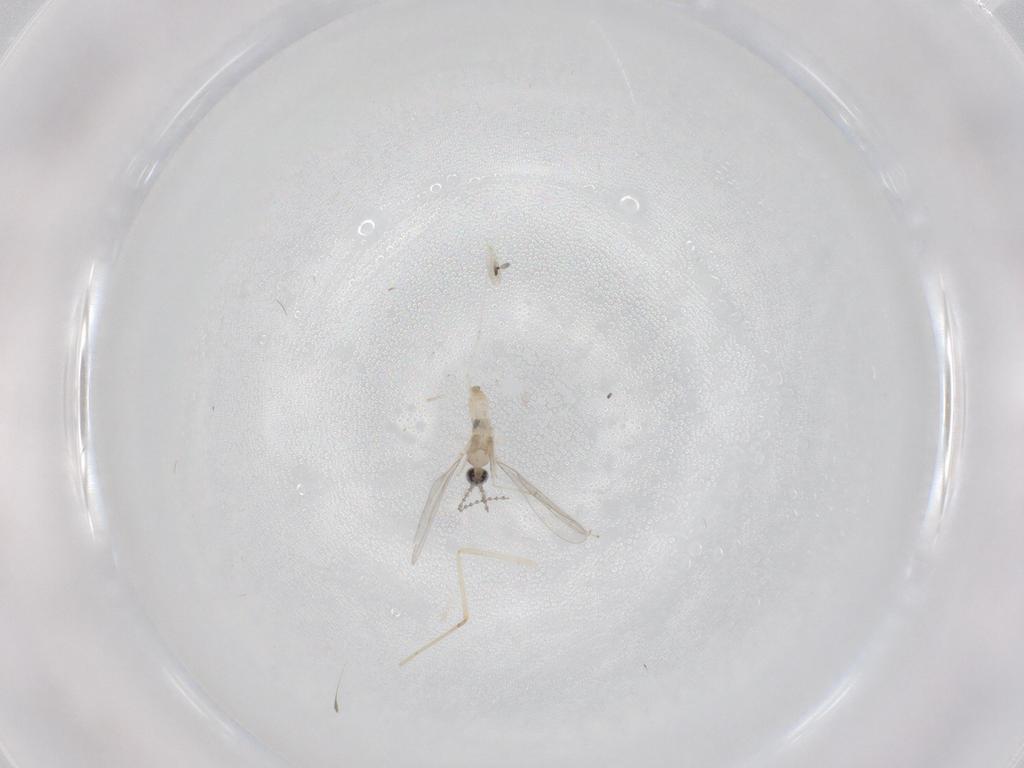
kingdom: Animalia
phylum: Arthropoda
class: Insecta
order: Diptera
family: Cecidomyiidae
